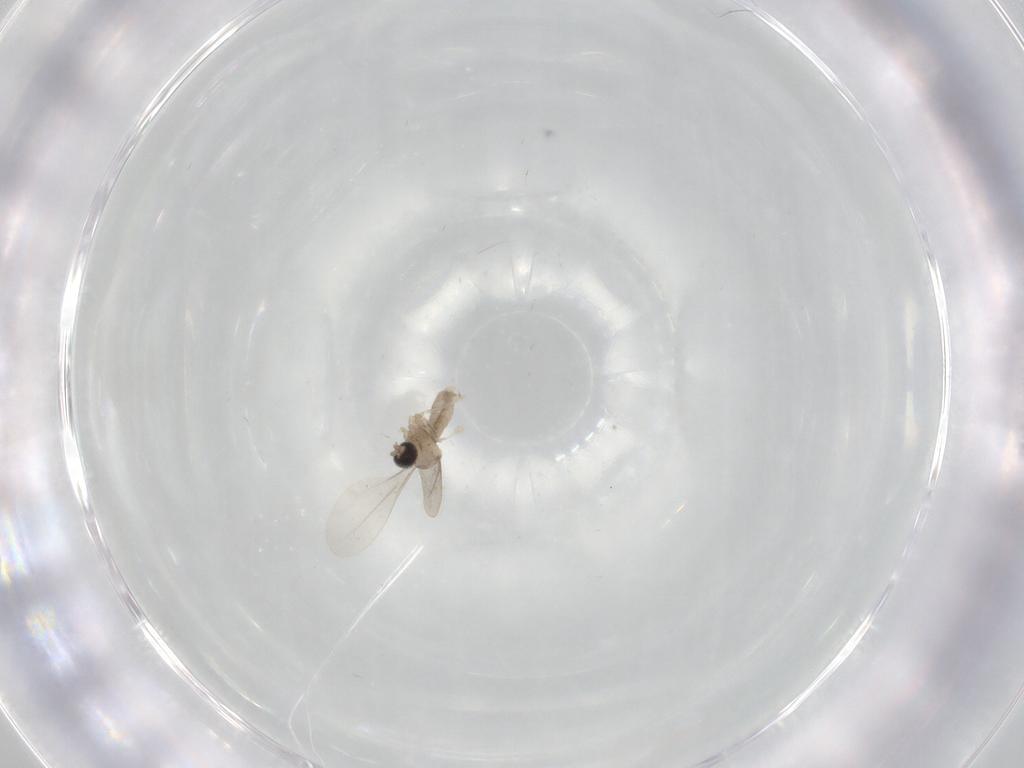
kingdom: Animalia
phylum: Arthropoda
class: Insecta
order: Diptera
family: Cecidomyiidae
